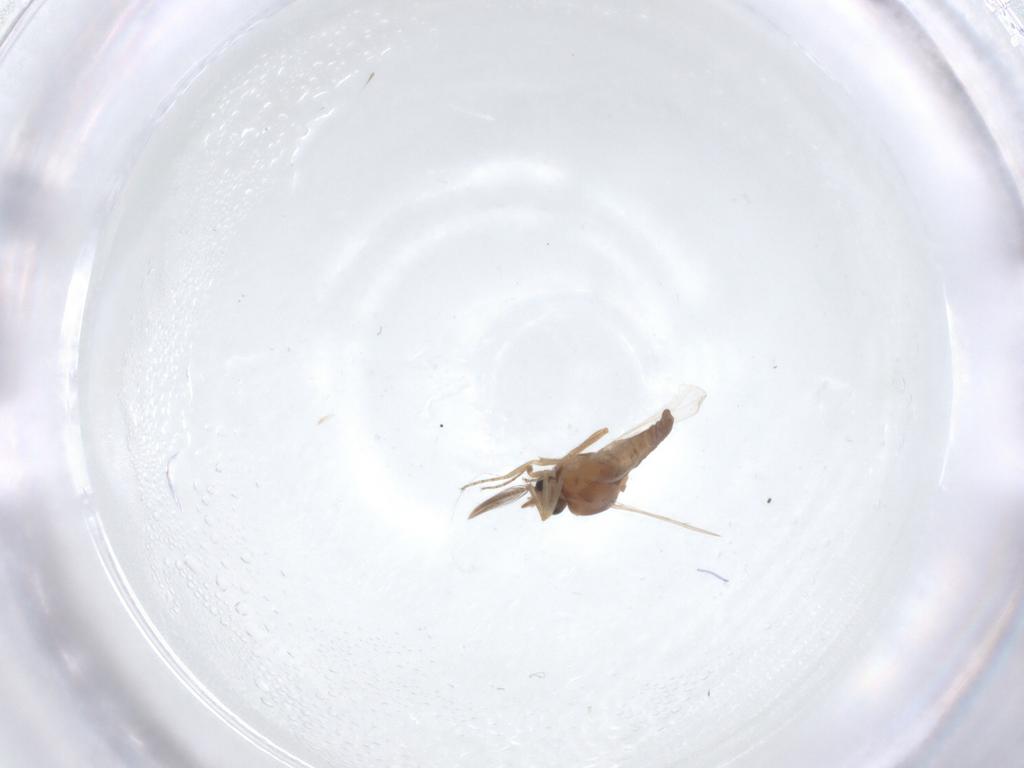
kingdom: Animalia
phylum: Arthropoda
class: Insecta
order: Diptera
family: Ceratopogonidae
